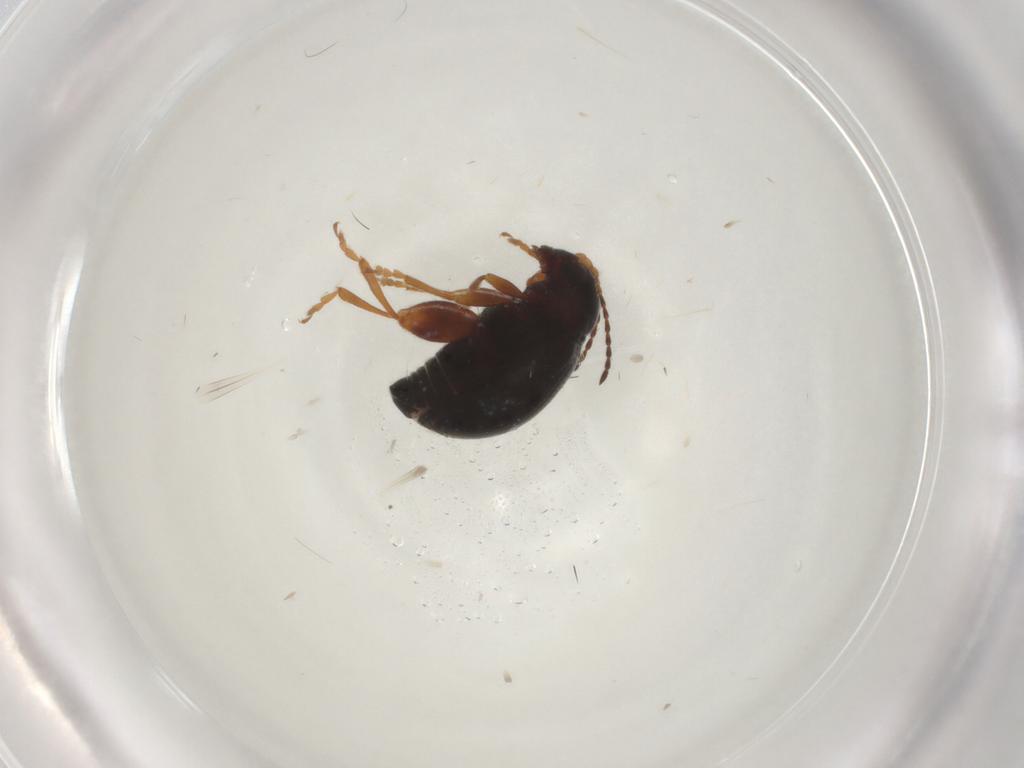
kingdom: Animalia
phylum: Arthropoda
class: Insecta
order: Coleoptera
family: Chrysomelidae
